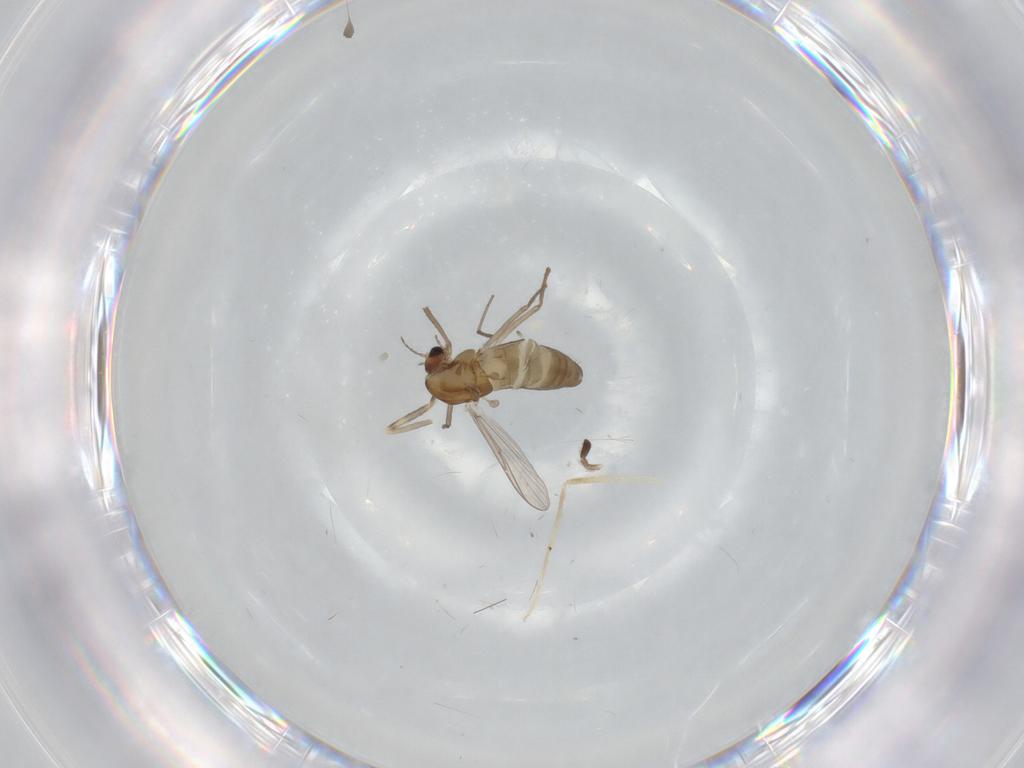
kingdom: Animalia
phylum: Arthropoda
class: Insecta
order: Diptera
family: Chironomidae
